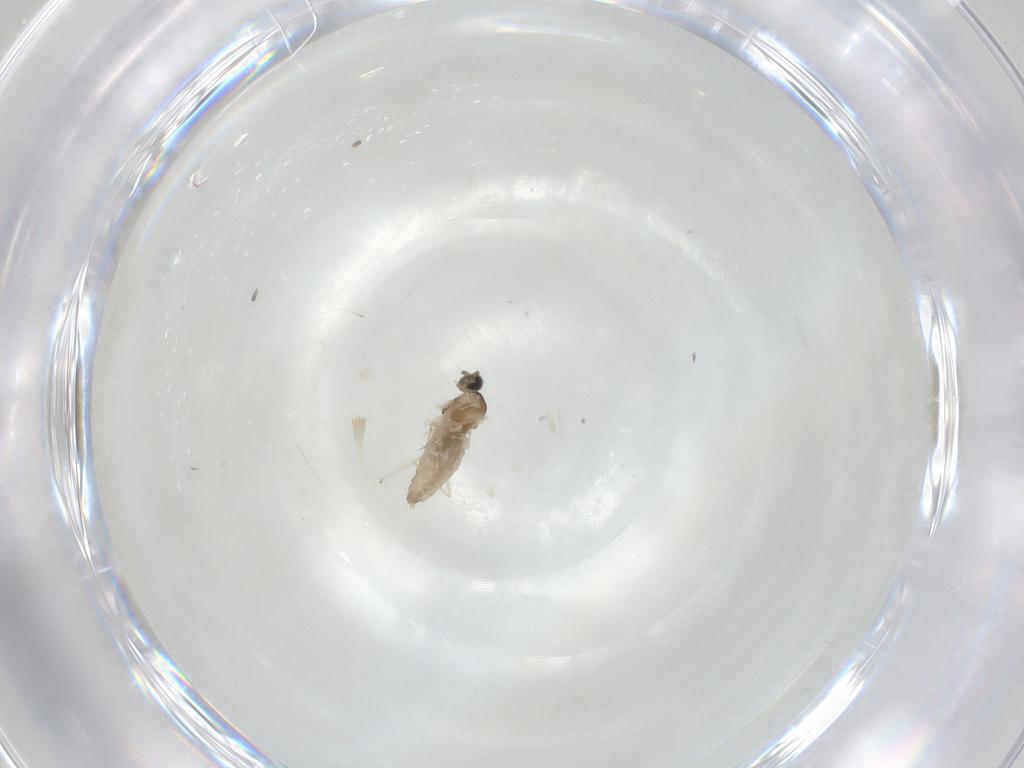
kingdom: Animalia
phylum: Arthropoda
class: Insecta
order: Diptera
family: Cecidomyiidae
